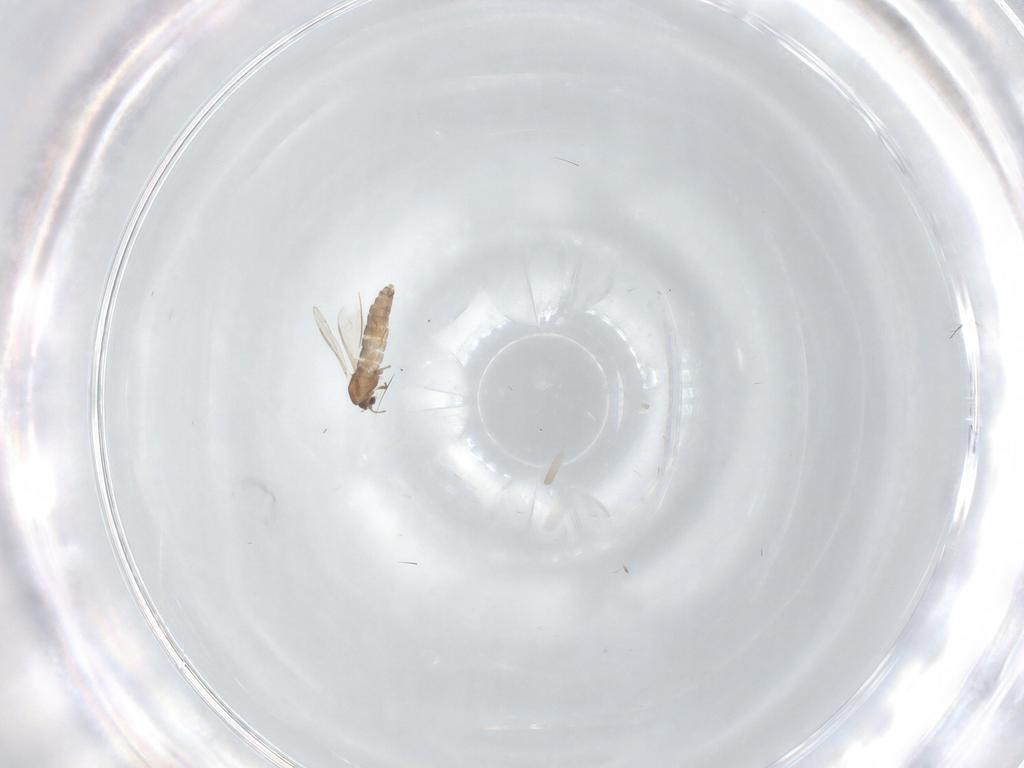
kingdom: Animalia
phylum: Arthropoda
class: Insecta
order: Diptera
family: Chironomidae
